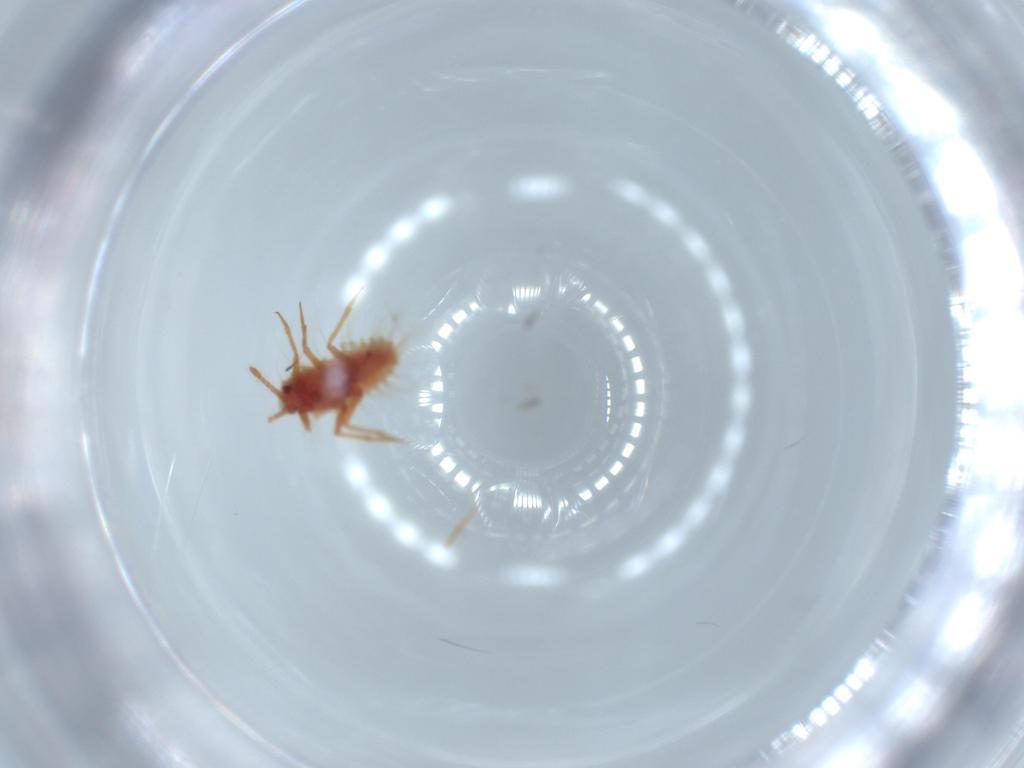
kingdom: Animalia
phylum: Arthropoda
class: Insecta
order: Hemiptera
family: Monophlebidae
